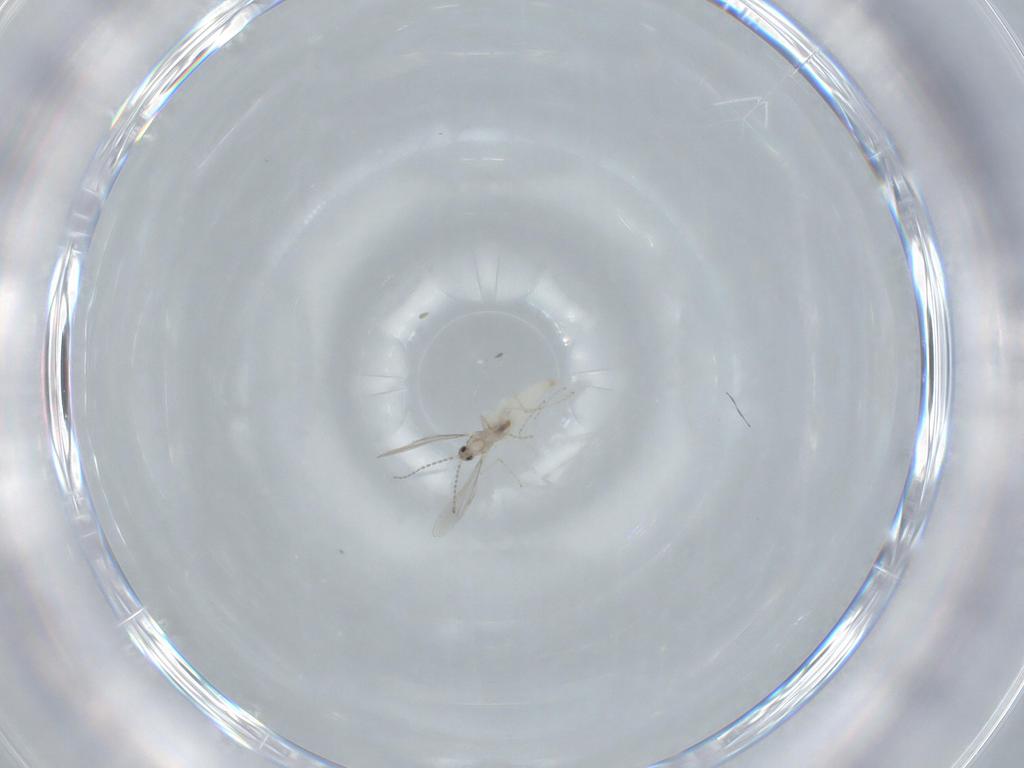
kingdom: Animalia
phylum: Arthropoda
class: Insecta
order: Diptera
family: Cecidomyiidae
